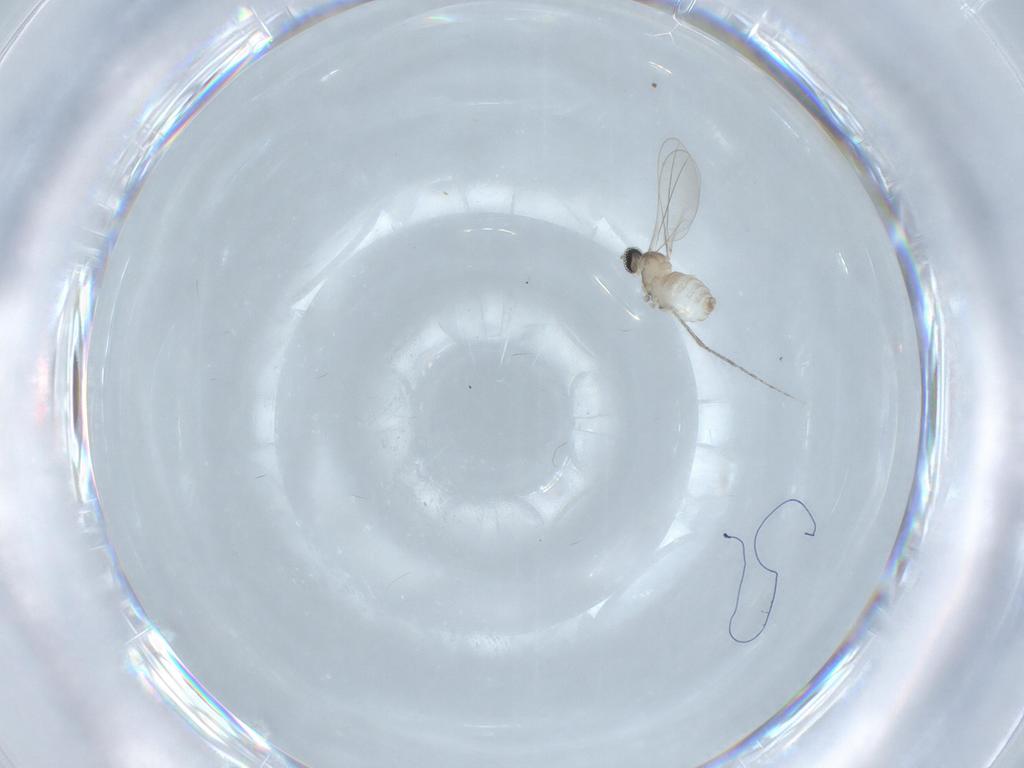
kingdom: Animalia
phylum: Arthropoda
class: Insecta
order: Diptera
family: Cecidomyiidae
